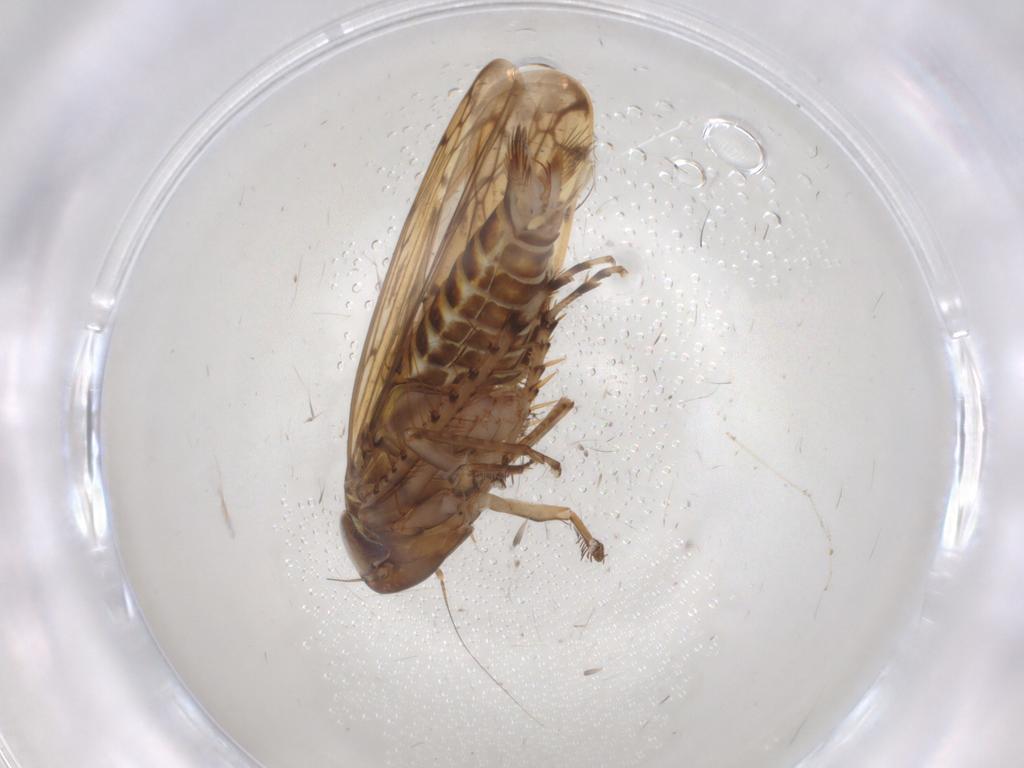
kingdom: Animalia
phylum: Arthropoda
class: Insecta
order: Hemiptera
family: Cicadellidae
